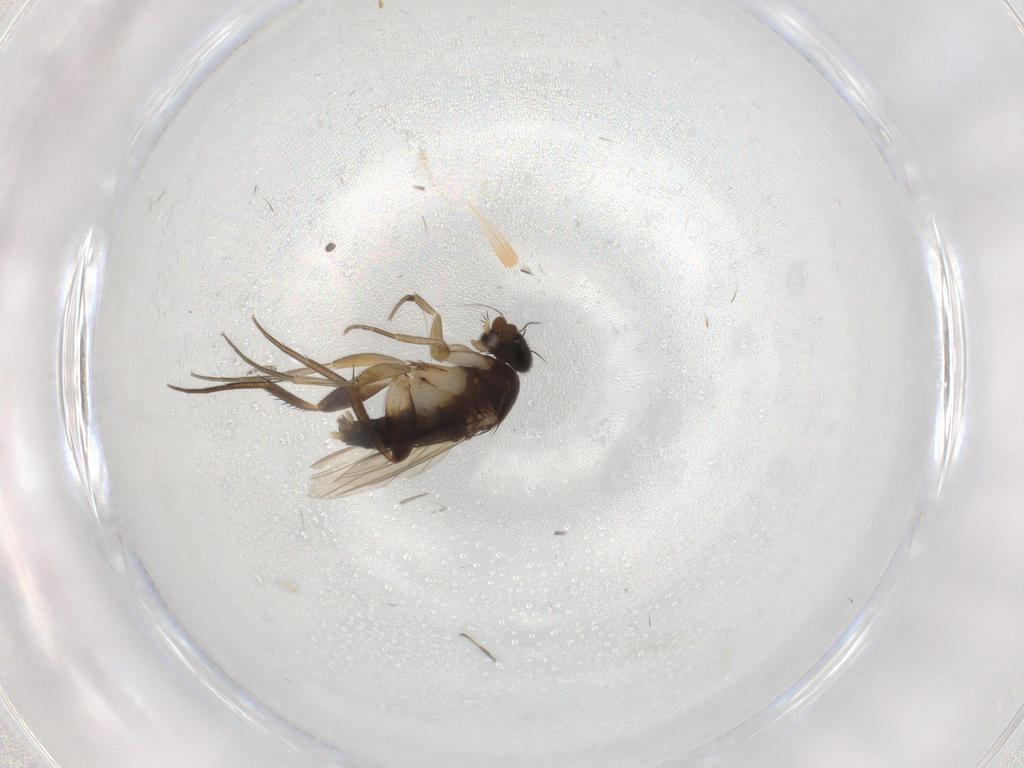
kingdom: Animalia
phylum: Arthropoda
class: Insecta
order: Diptera
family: Phoridae
